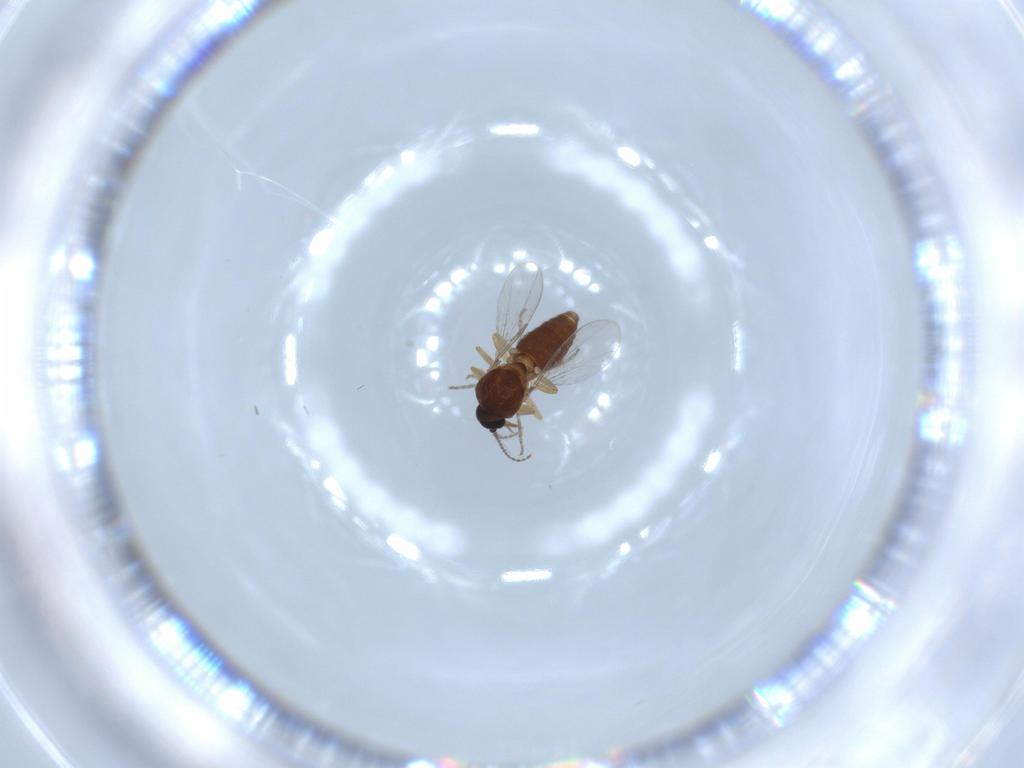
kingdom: Animalia
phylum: Arthropoda
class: Insecta
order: Diptera
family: Ceratopogonidae
